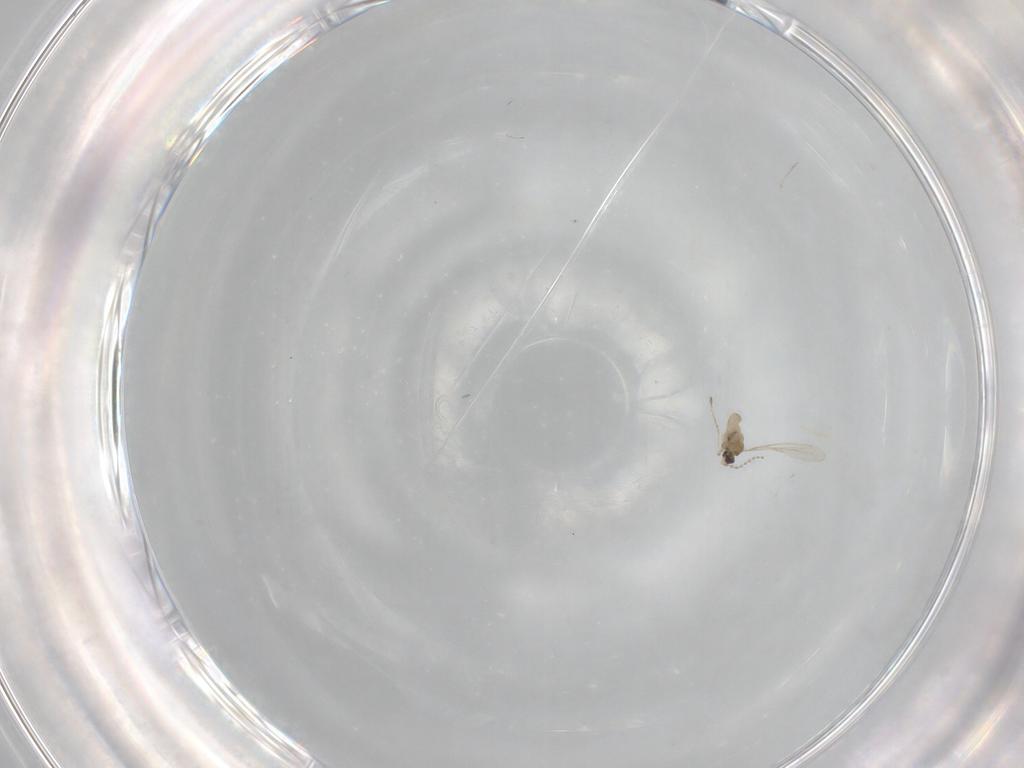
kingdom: Animalia
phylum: Arthropoda
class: Insecta
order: Diptera
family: Cecidomyiidae
